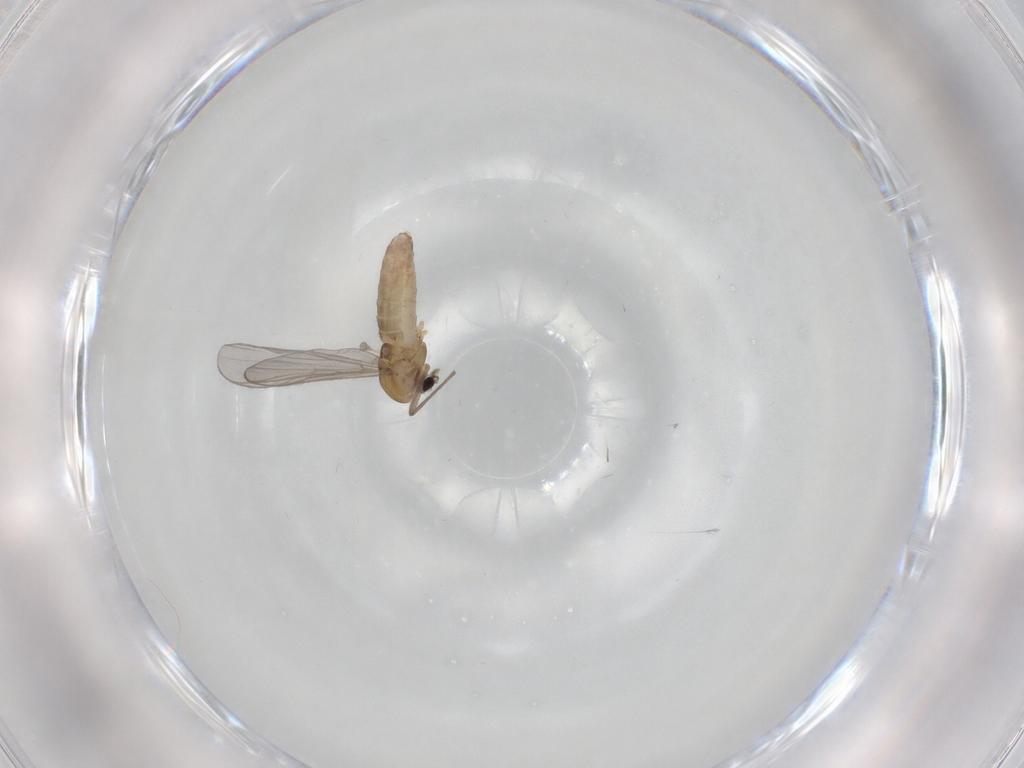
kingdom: Animalia
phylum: Arthropoda
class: Insecta
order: Diptera
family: Chironomidae
